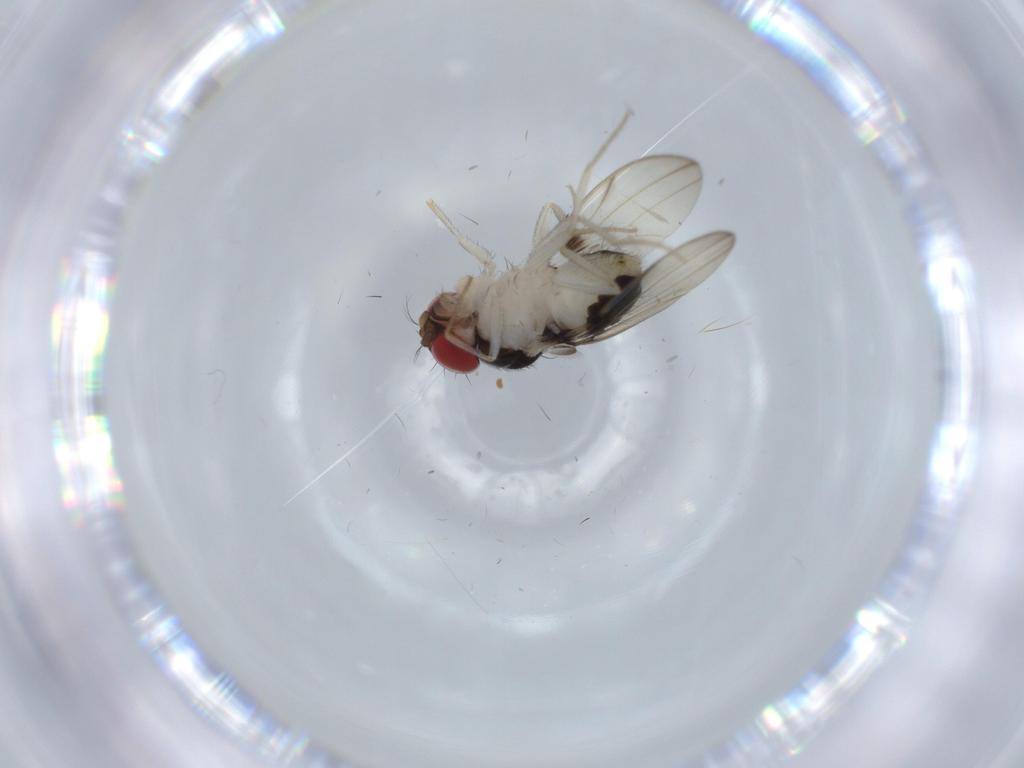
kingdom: Animalia
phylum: Arthropoda
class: Insecta
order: Diptera
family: Drosophilidae
